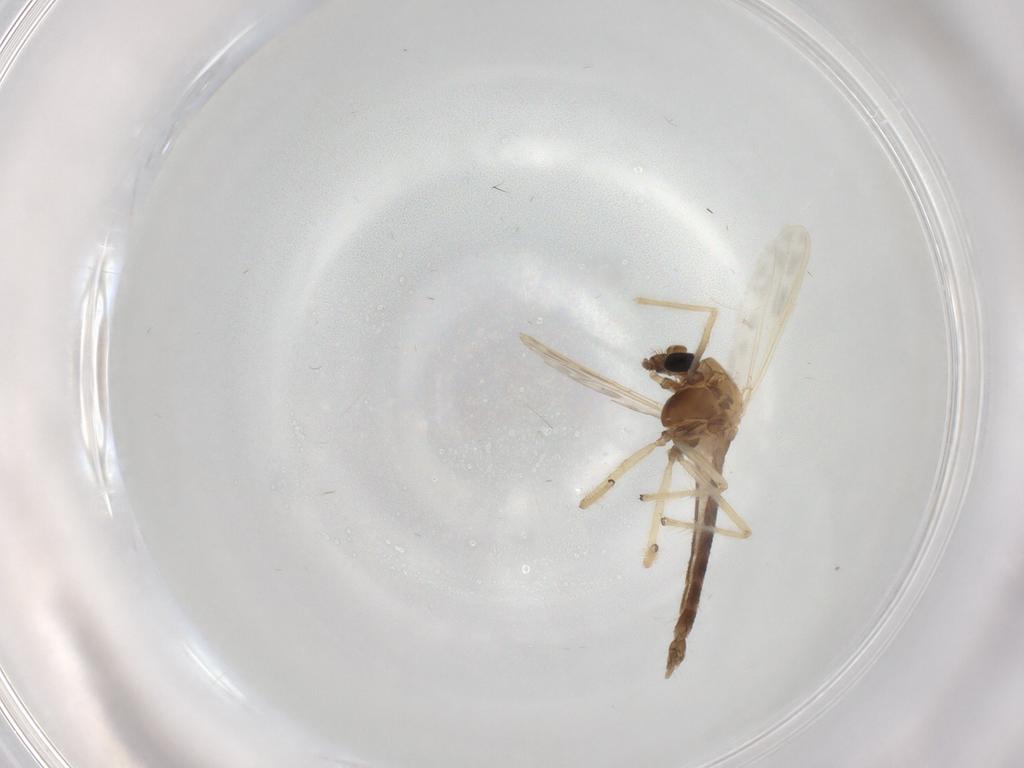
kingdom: Animalia
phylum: Arthropoda
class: Insecta
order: Diptera
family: Chironomidae
